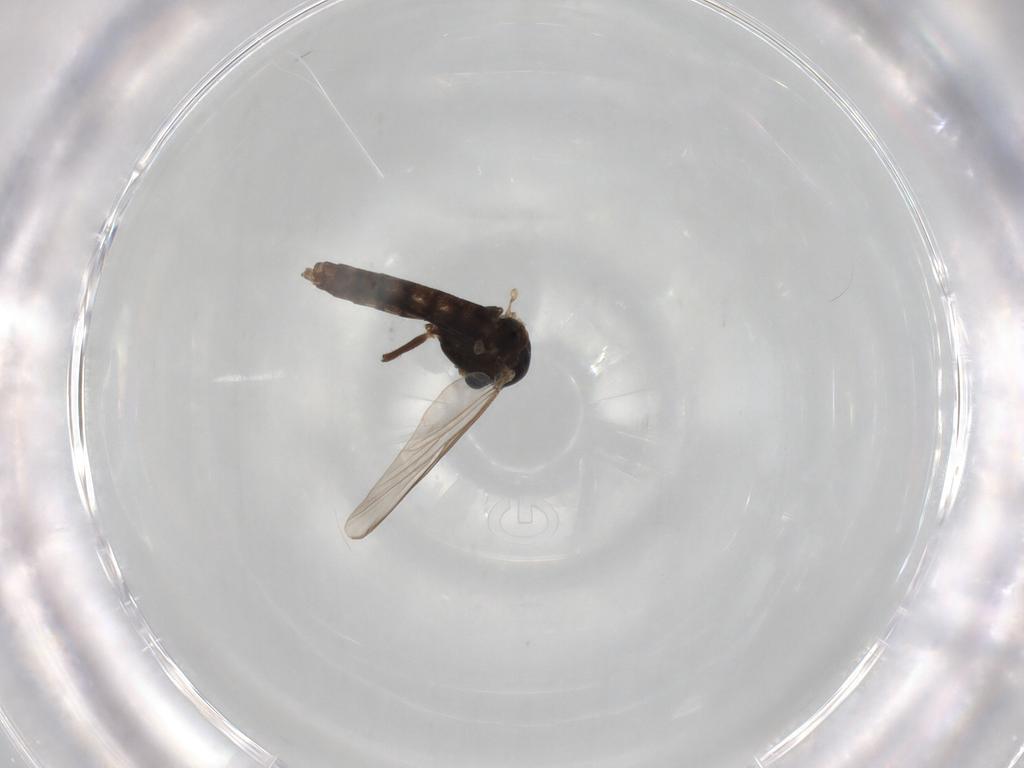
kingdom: Animalia
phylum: Arthropoda
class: Insecta
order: Diptera
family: Chironomidae
